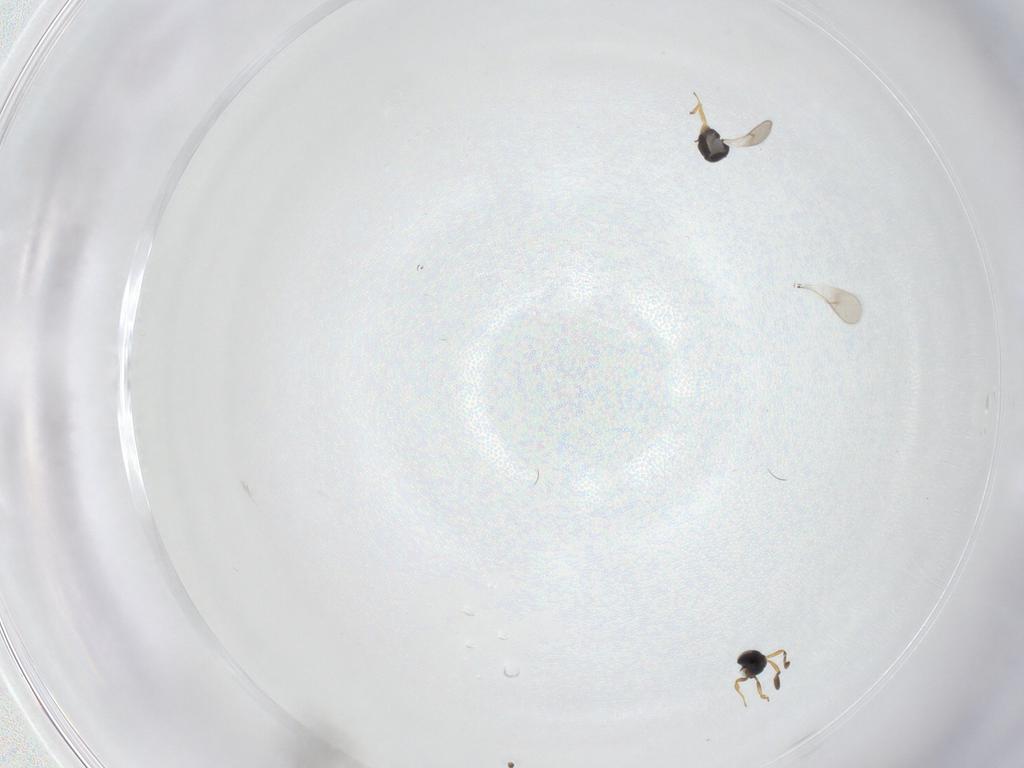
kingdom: Animalia
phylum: Arthropoda
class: Insecta
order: Hymenoptera
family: Scelionidae
